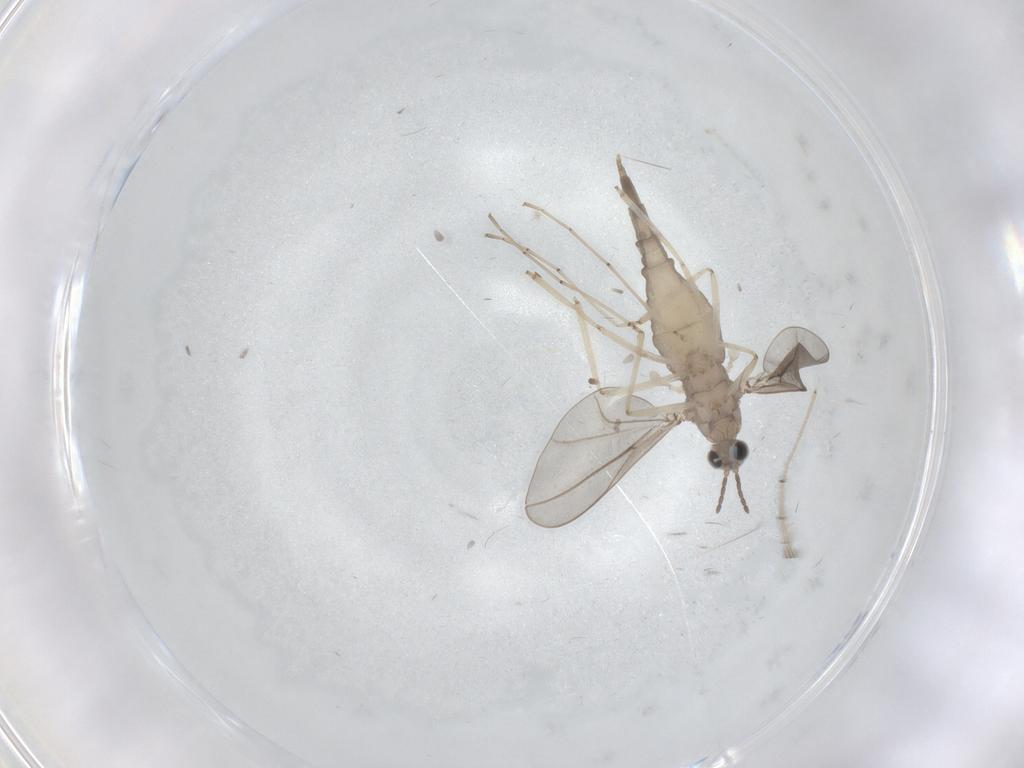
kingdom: Animalia
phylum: Arthropoda
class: Insecta
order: Diptera
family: Cecidomyiidae
